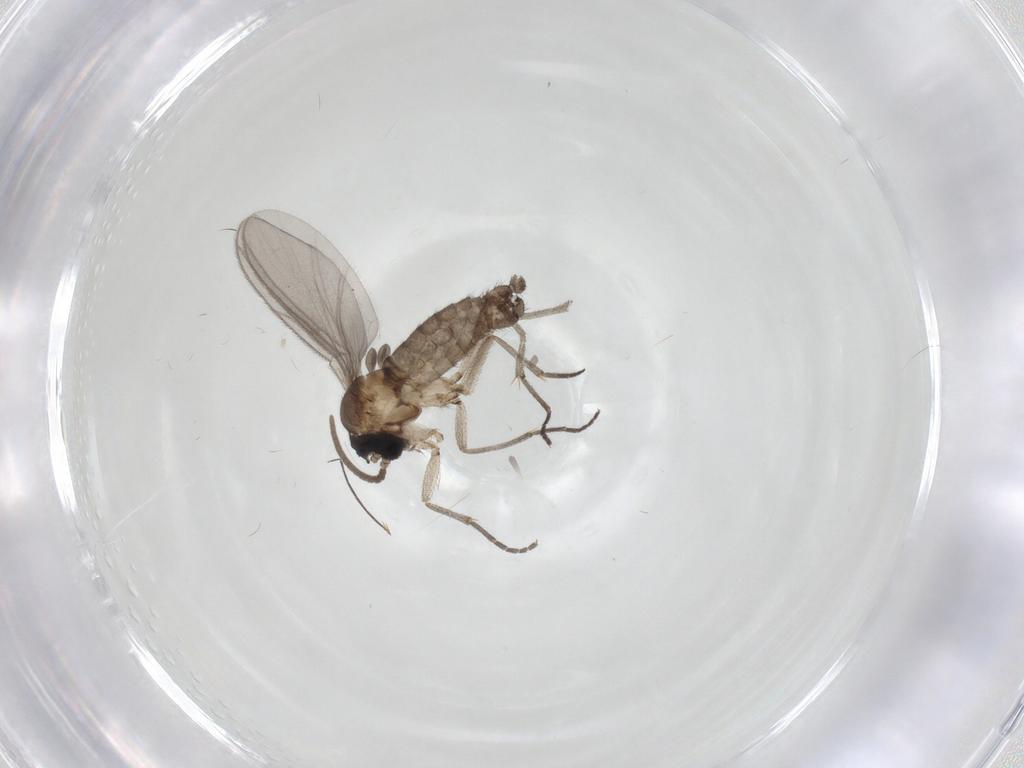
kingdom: Animalia
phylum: Arthropoda
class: Insecta
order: Diptera
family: Cecidomyiidae
